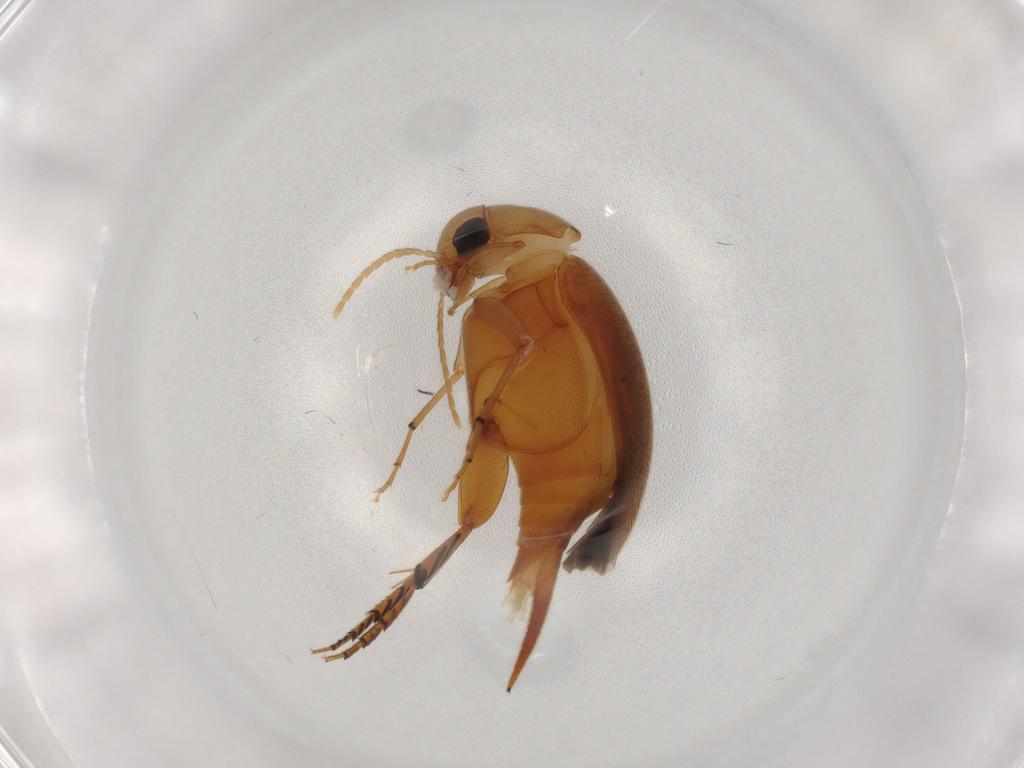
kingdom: Animalia
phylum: Arthropoda
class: Insecta
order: Coleoptera
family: Mordellidae
